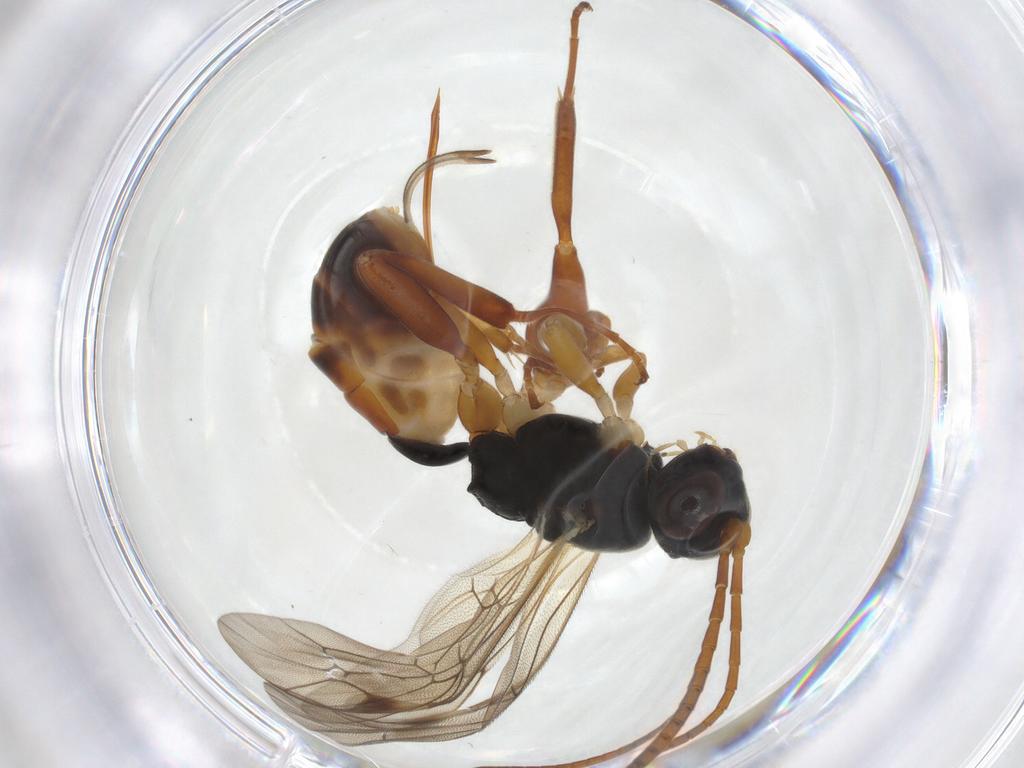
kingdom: Animalia
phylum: Arthropoda
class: Insecta
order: Hymenoptera
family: Ichneumonidae
